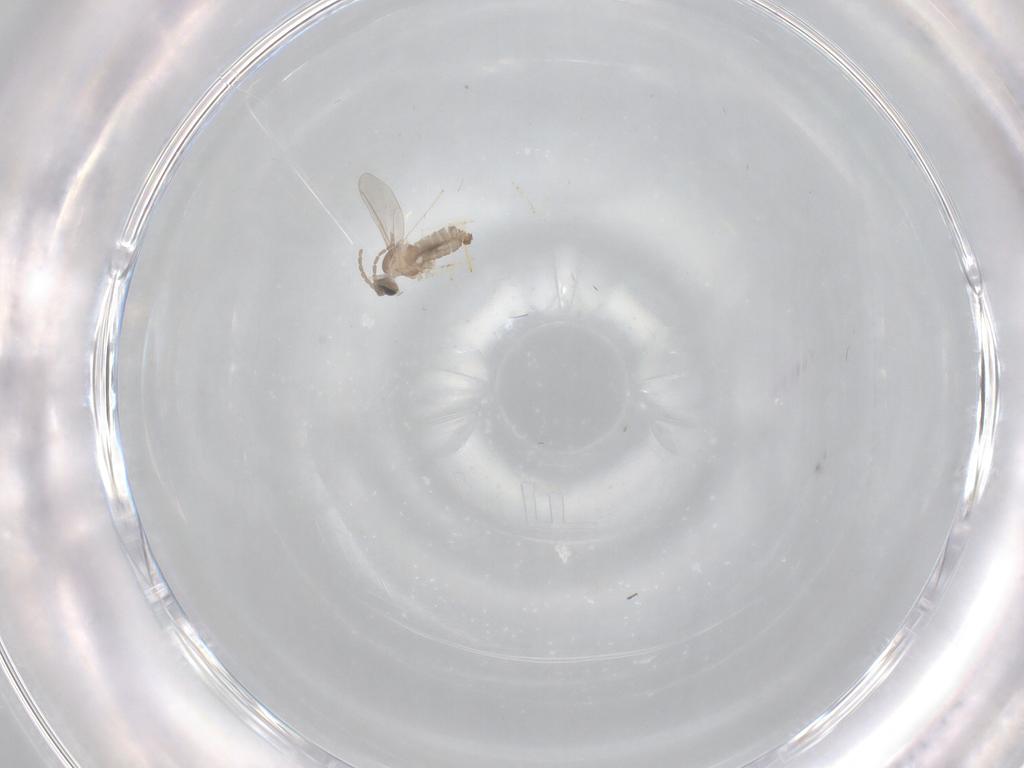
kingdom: Animalia
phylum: Arthropoda
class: Insecta
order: Diptera
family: Cecidomyiidae
